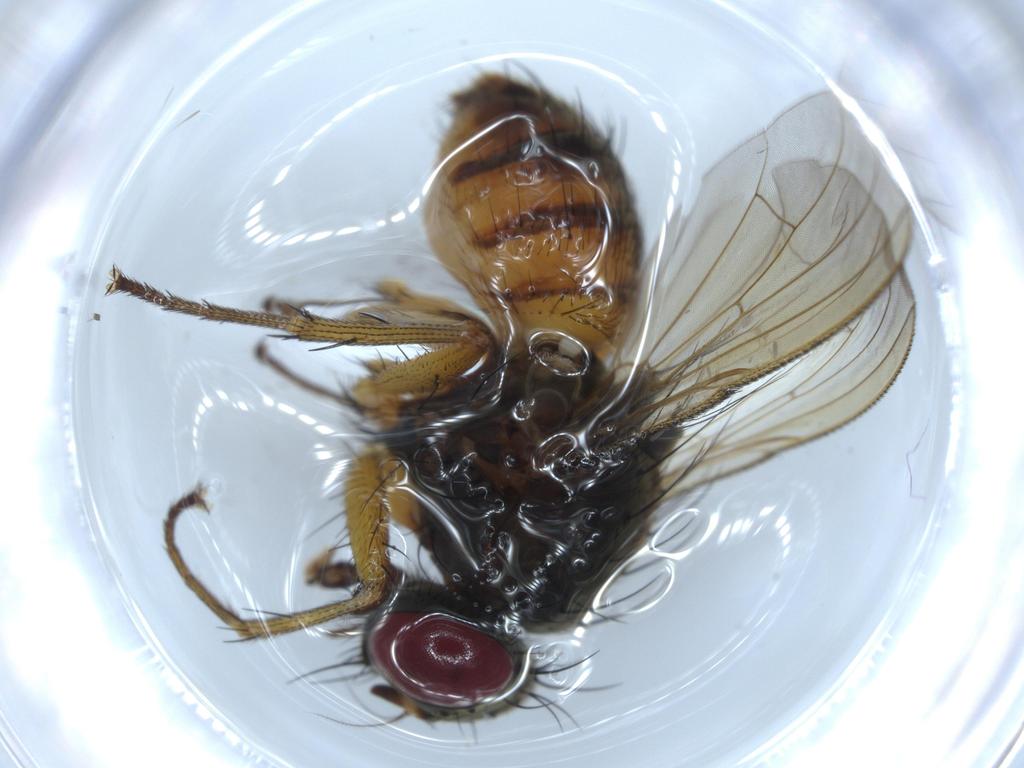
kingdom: Animalia
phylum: Arthropoda
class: Insecta
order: Diptera
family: Muscidae
